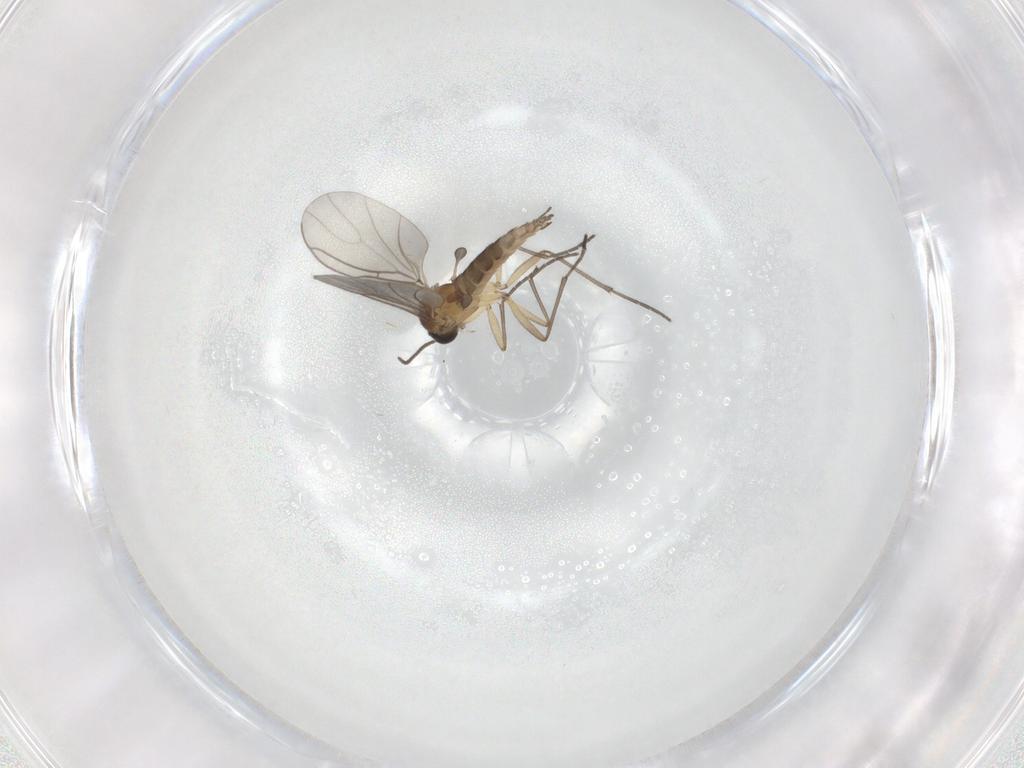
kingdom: Animalia
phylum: Arthropoda
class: Insecta
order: Diptera
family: Sciaridae
